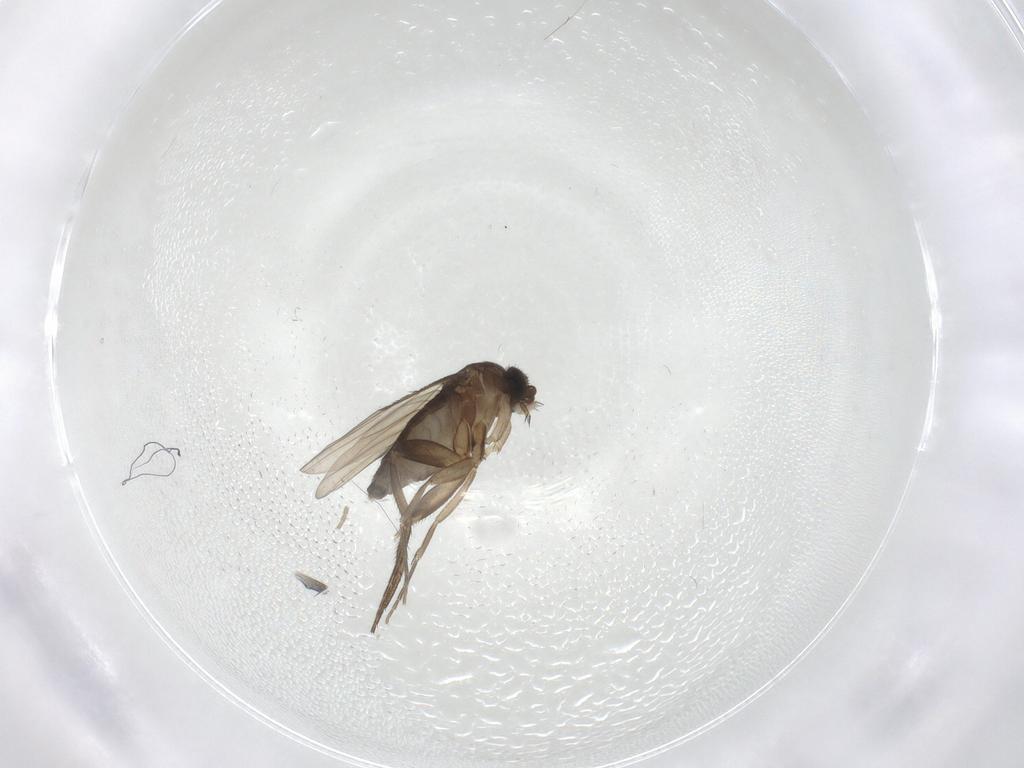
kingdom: Animalia
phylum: Arthropoda
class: Insecta
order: Diptera
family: Phoridae
